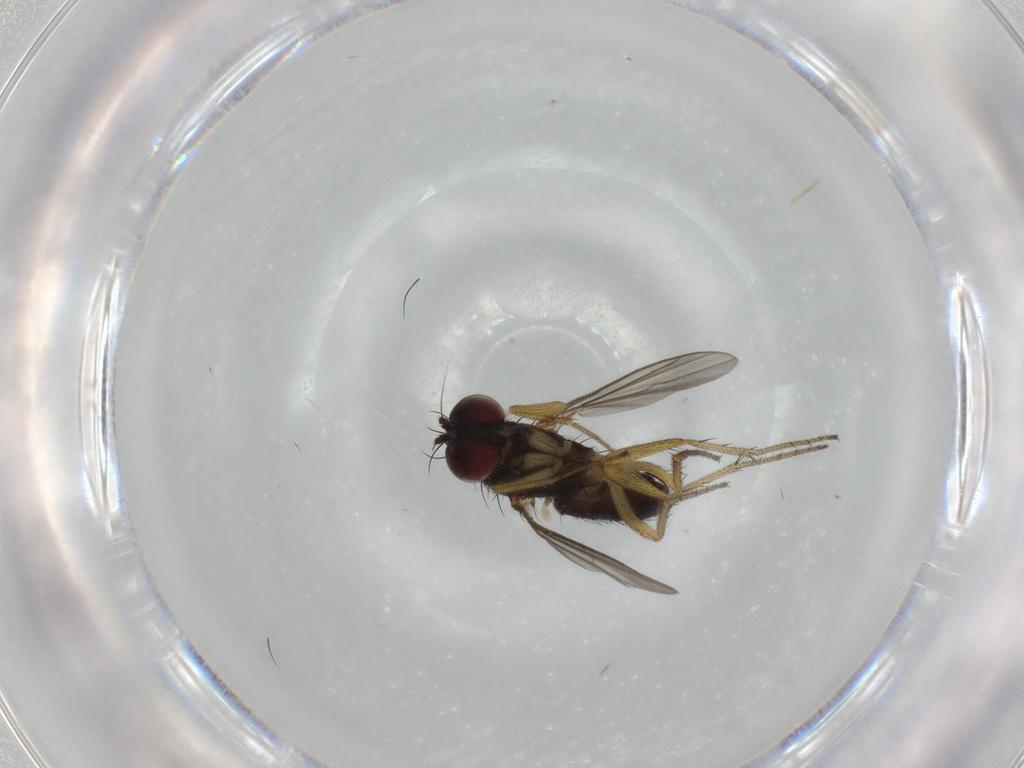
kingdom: Animalia
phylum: Arthropoda
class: Insecta
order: Diptera
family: Dolichopodidae
